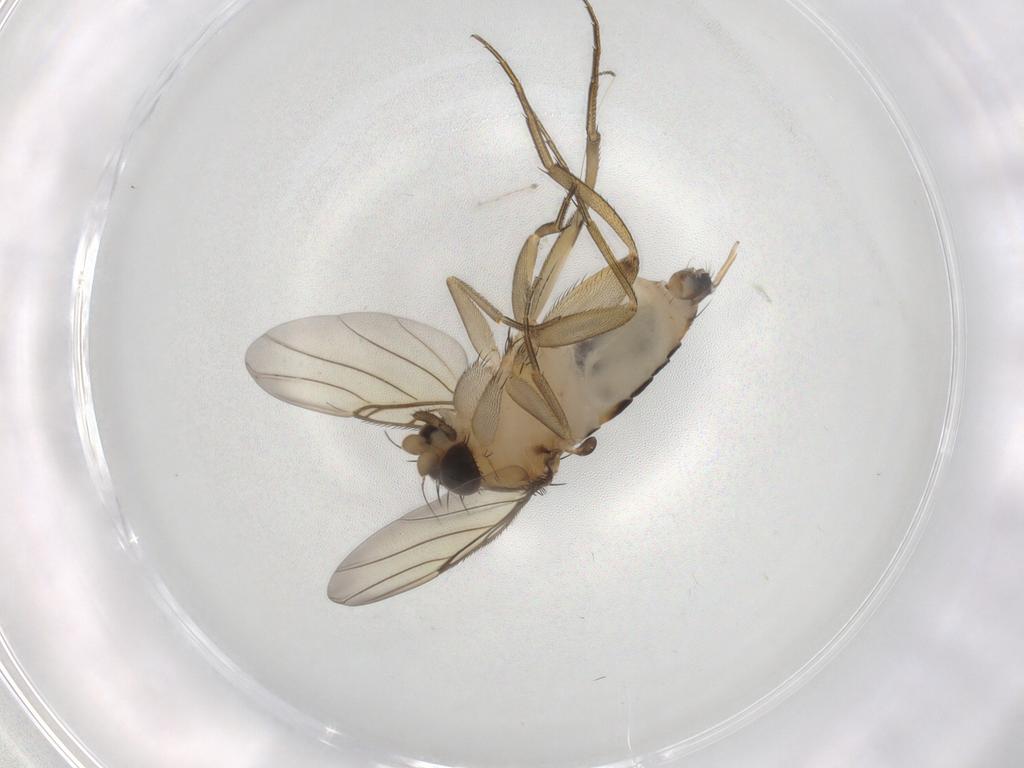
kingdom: Animalia
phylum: Arthropoda
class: Insecta
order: Diptera
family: Phoridae
